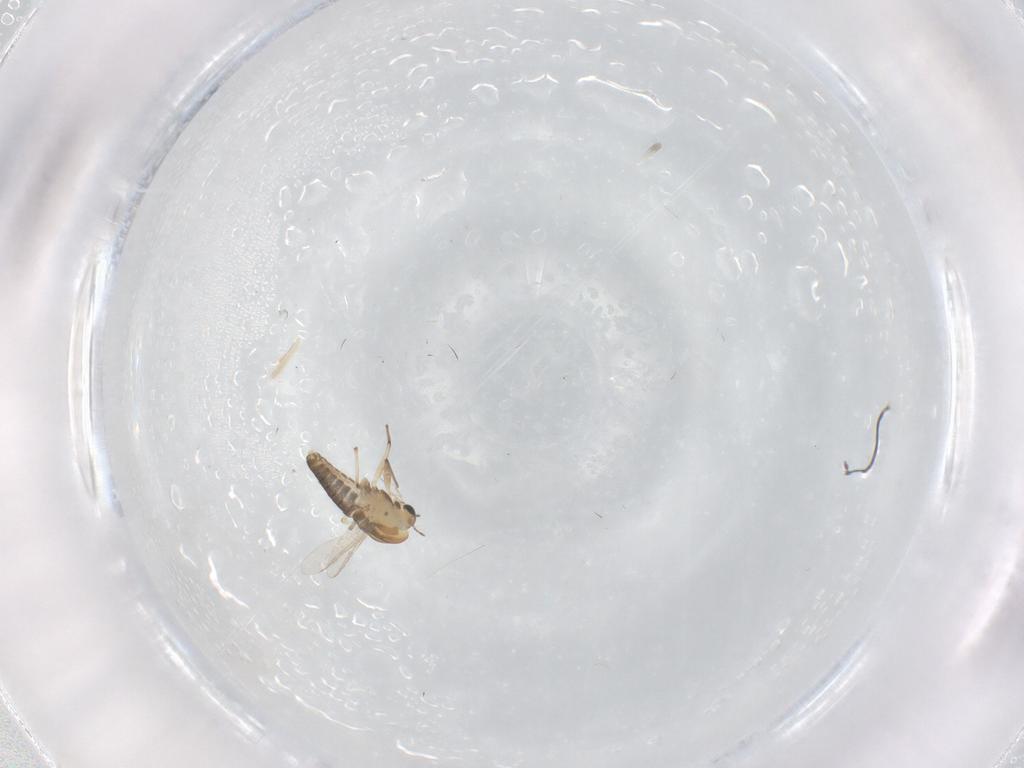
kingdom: Animalia
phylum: Arthropoda
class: Insecta
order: Diptera
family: Chironomidae
